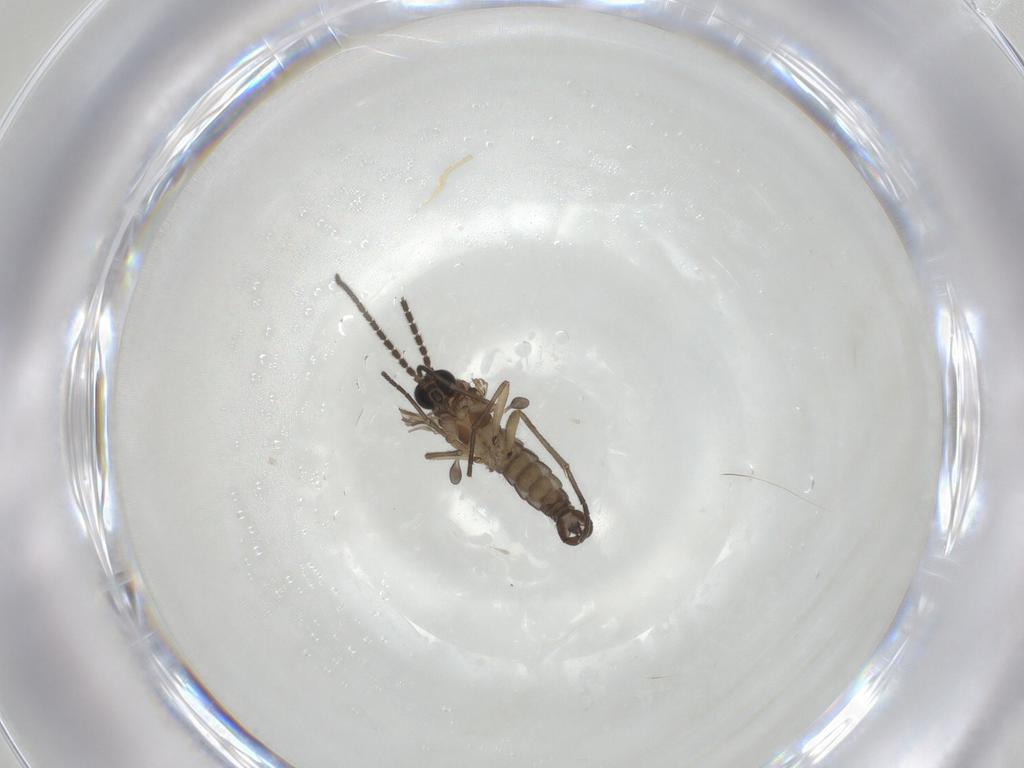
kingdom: Animalia
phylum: Arthropoda
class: Insecta
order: Diptera
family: Sciaridae
